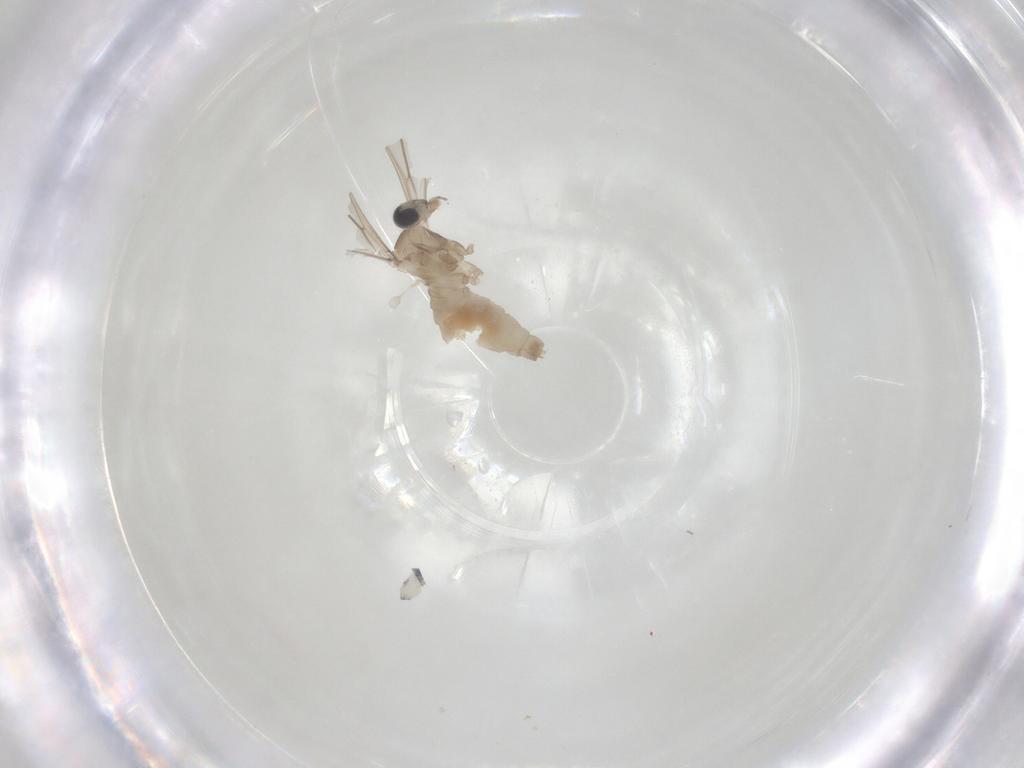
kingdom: Animalia
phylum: Arthropoda
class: Insecta
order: Diptera
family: Cecidomyiidae
